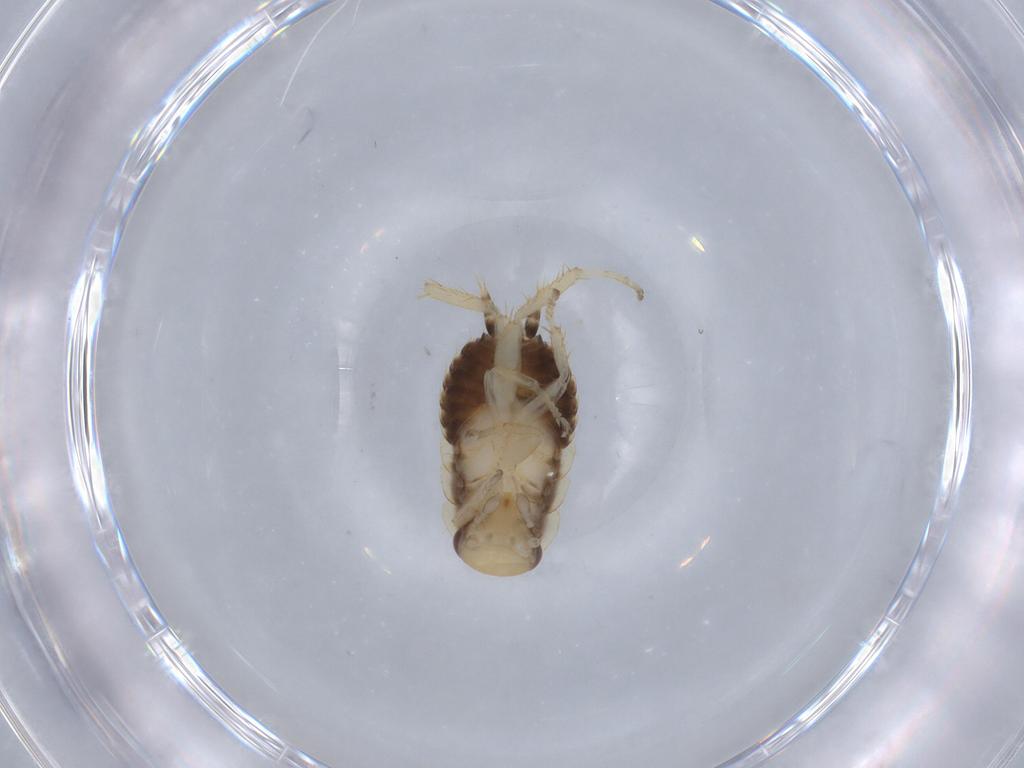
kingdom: Animalia
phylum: Arthropoda
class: Insecta
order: Blattodea
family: Ectobiidae
